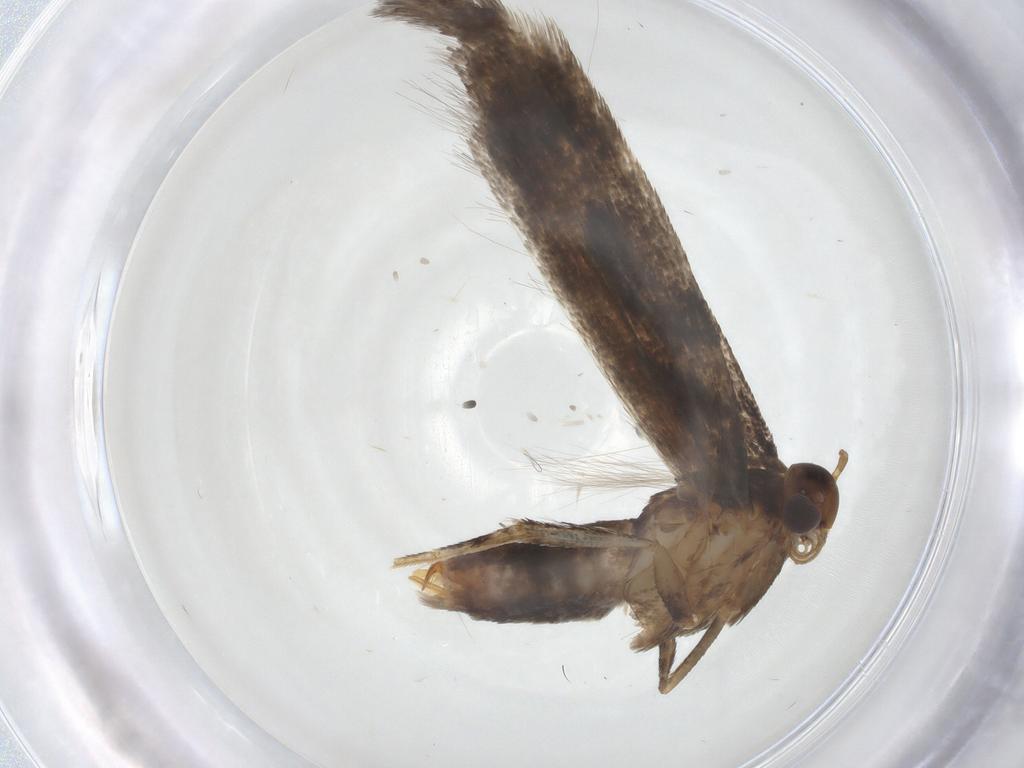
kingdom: Animalia
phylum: Arthropoda
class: Insecta
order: Lepidoptera
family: Gelechiidae
